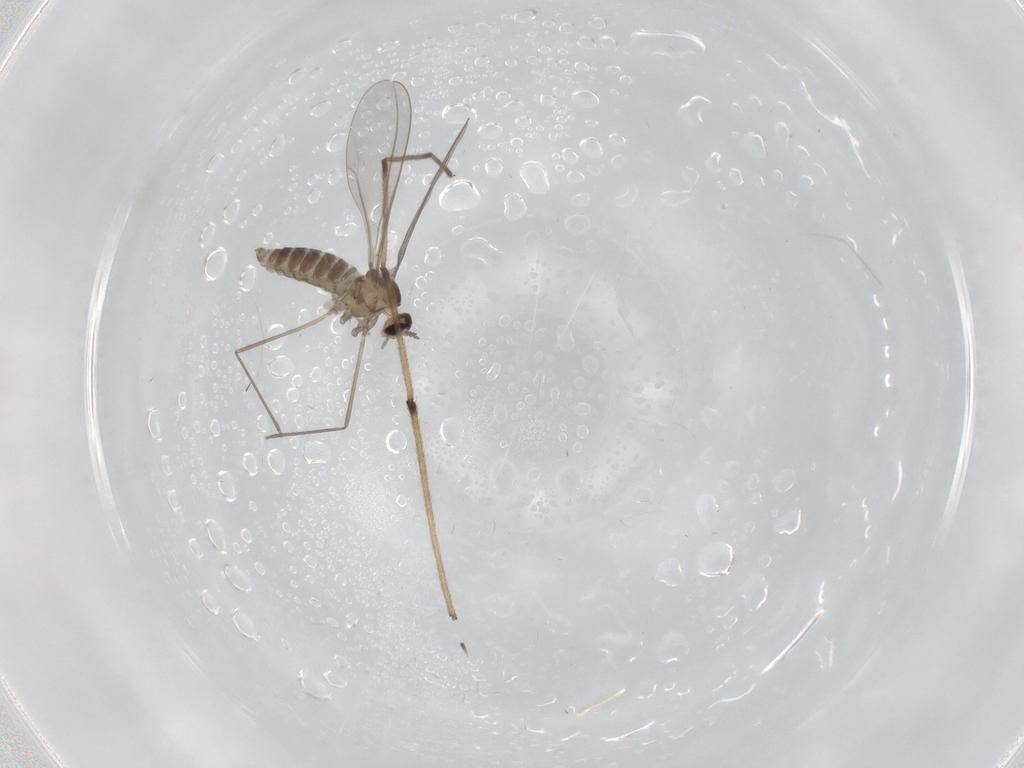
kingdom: Animalia
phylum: Arthropoda
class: Insecta
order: Diptera
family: Cecidomyiidae
